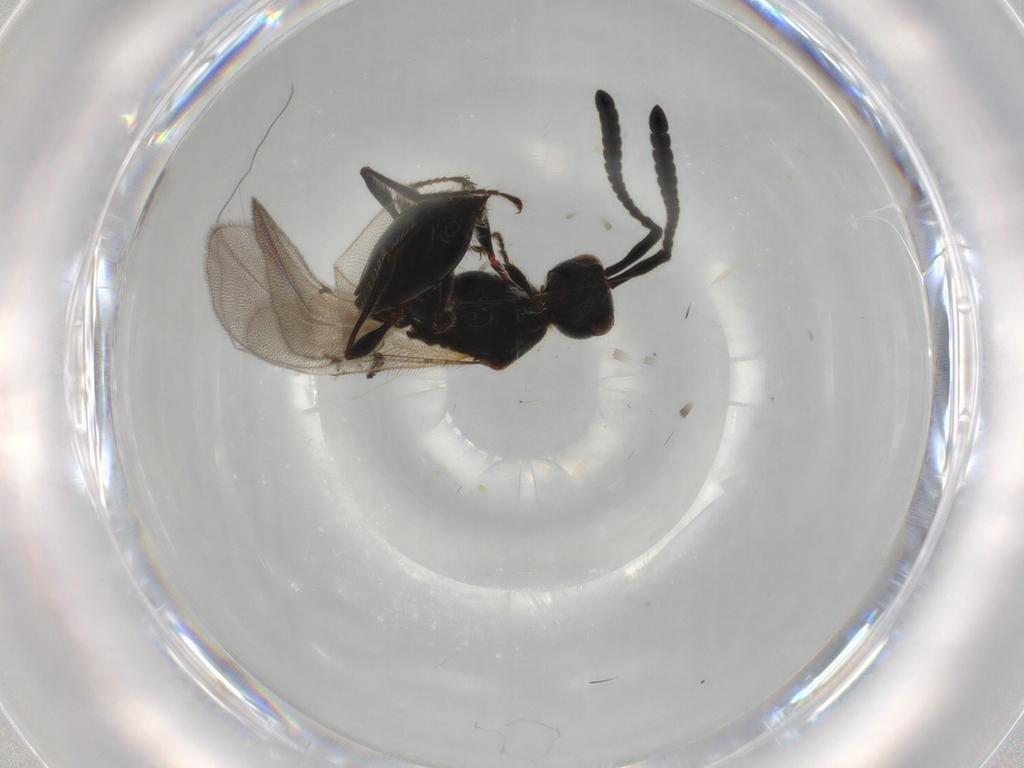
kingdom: Animalia
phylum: Arthropoda
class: Insecta
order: Hymenoptera
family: Diapriidae
